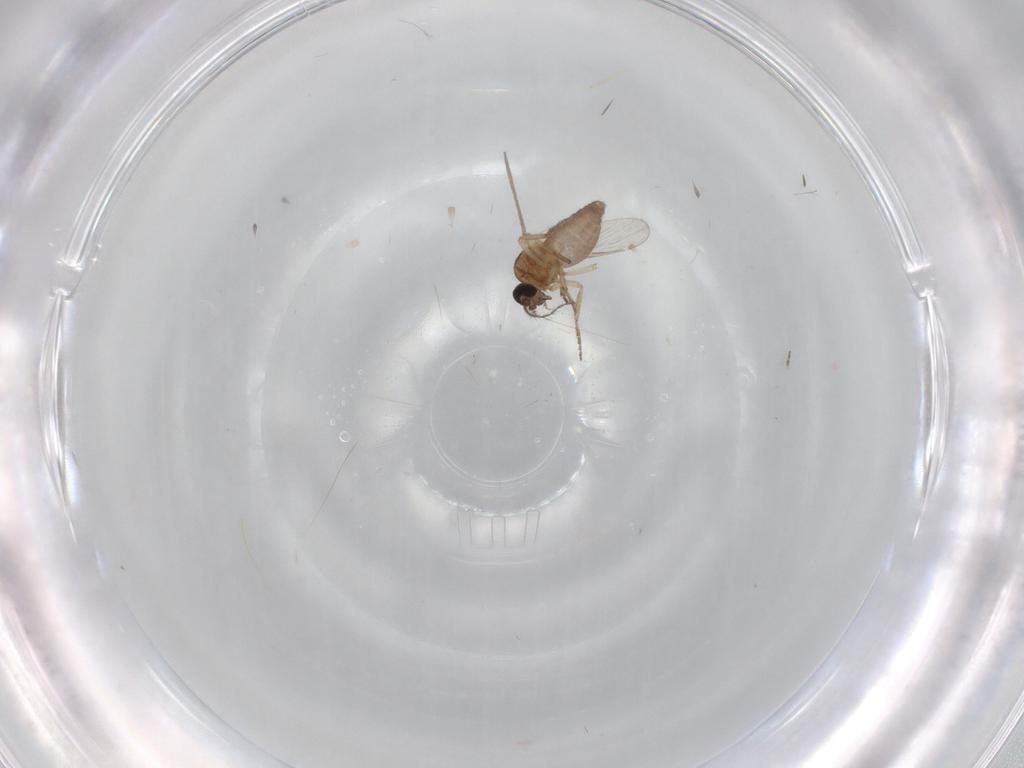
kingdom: Animalia
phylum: Arthropoda
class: Insecta
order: Diptera
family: Ceratopogonidae
